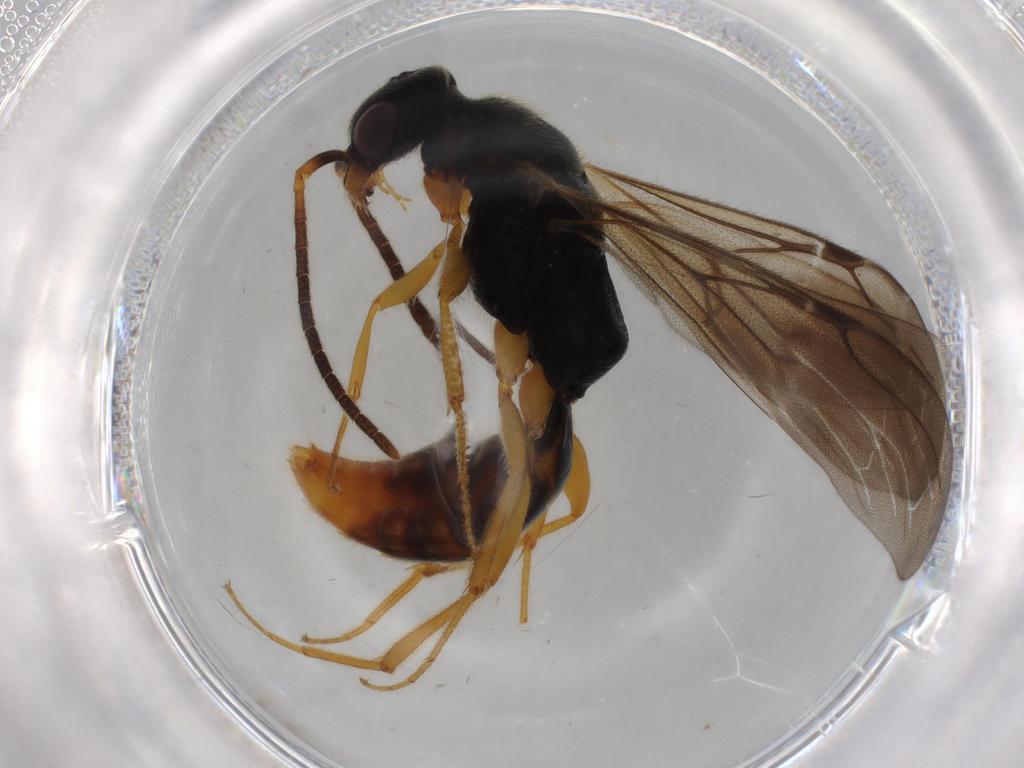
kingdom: Animalia
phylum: Arthropoda
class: Insecta
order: Hymenoptera
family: Bethylidae
